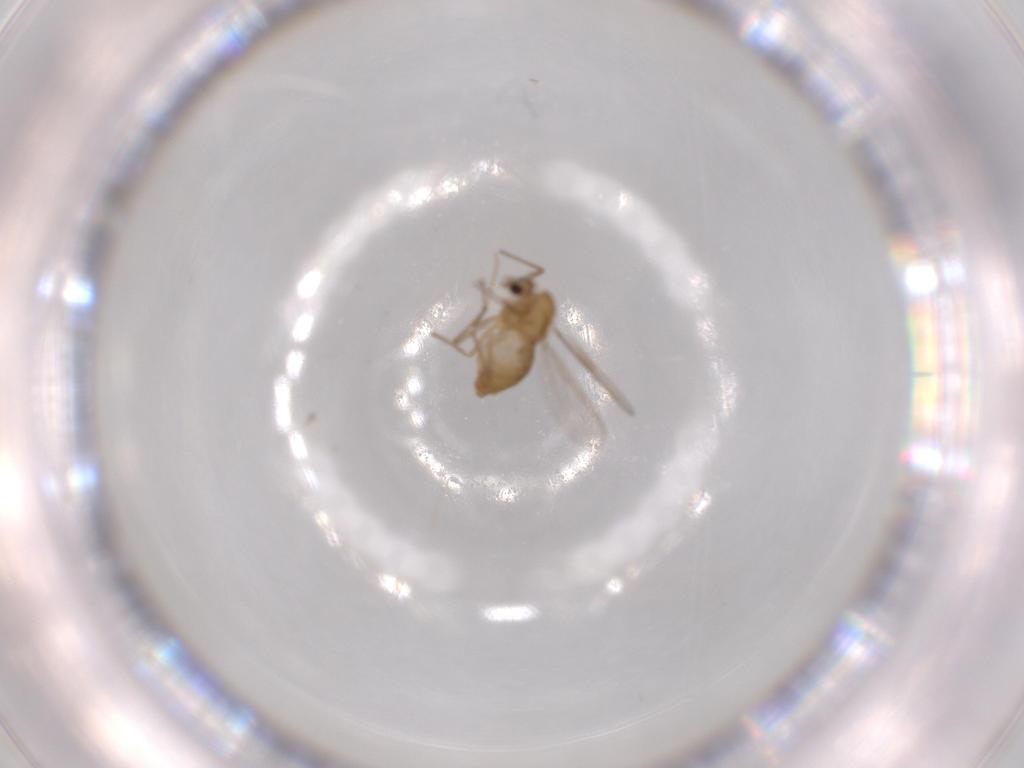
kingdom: Animalia
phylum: Arthropoda
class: Insecta
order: Diptera
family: Chironomidae
